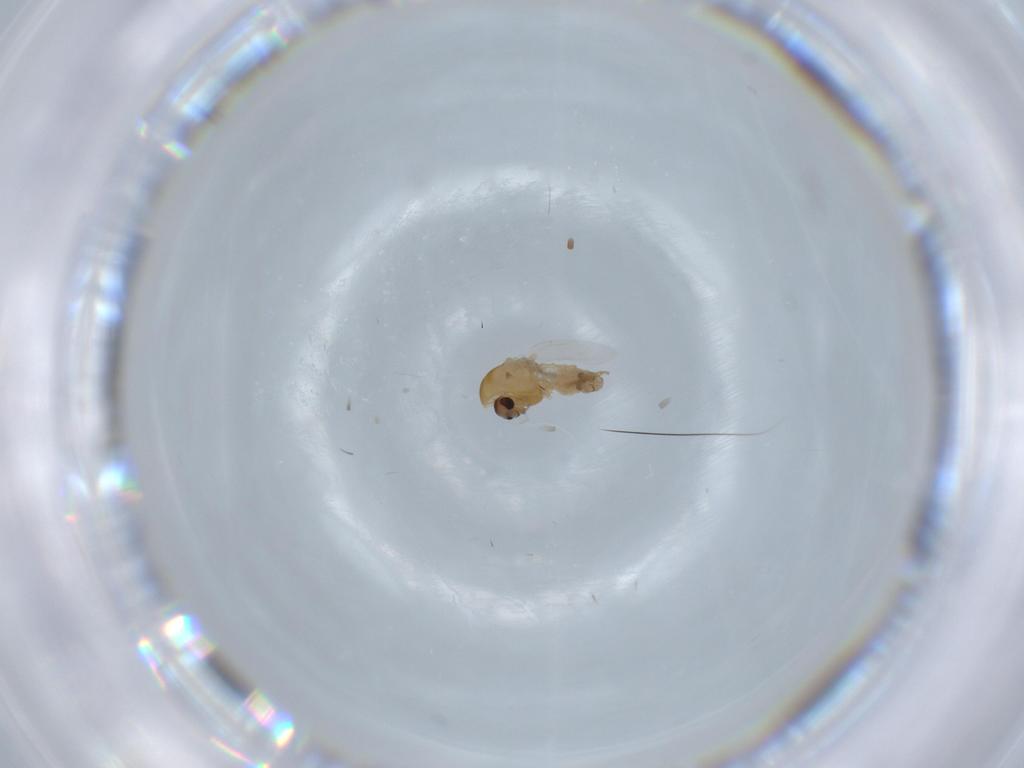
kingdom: Animalia
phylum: Arthropoda
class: Insecta
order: Diptera
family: Chironomidae
